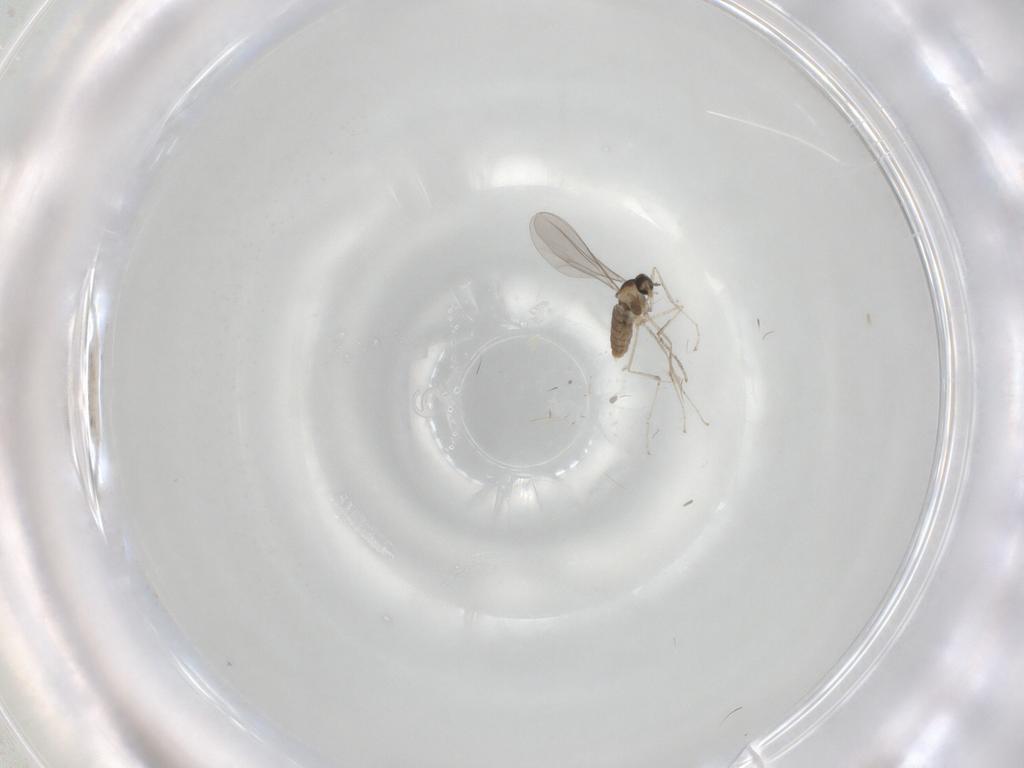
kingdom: Animalia
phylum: Arthropoda
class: Insecta
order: Diptera
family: Cecidomyiidae
